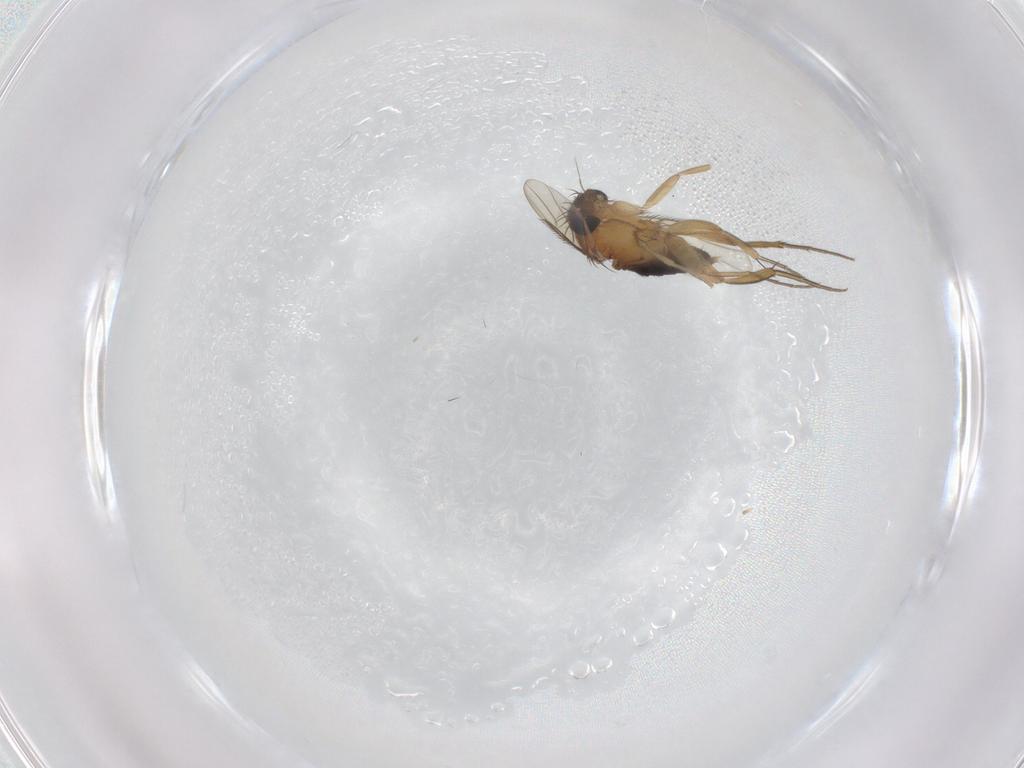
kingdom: Animalia
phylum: Arthropoda
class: Insecta
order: Diptera
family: Phoridae
